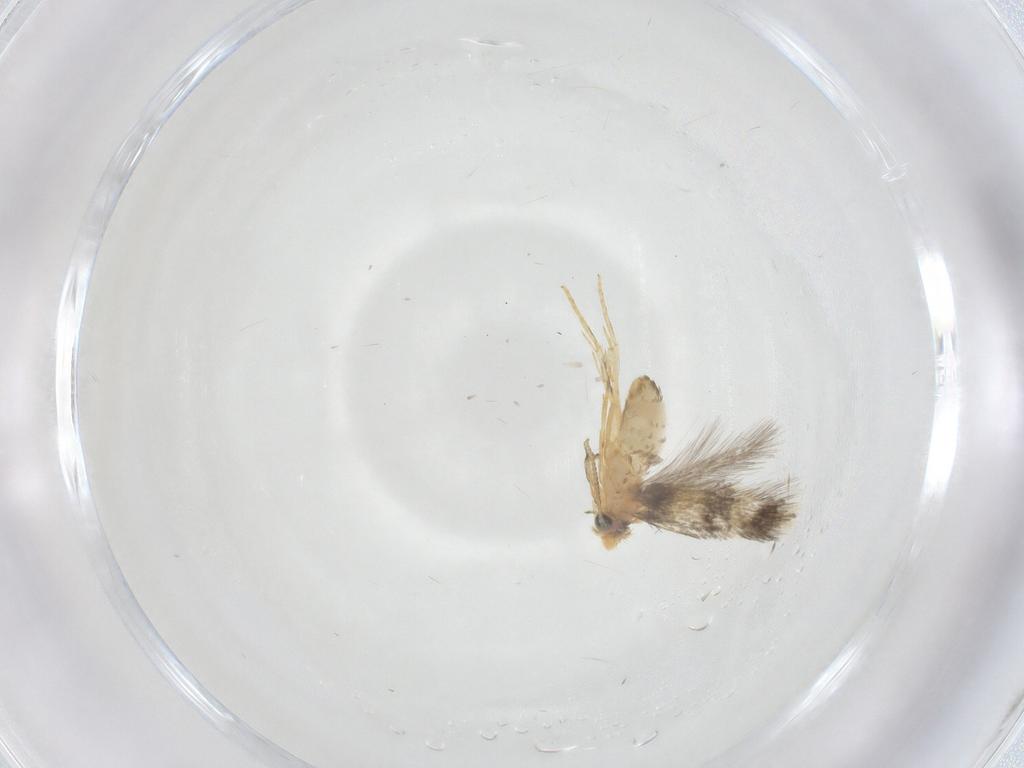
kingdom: Animalia
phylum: Arthropoda
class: Insecta
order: Lepidoptera
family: Nepticulidae
